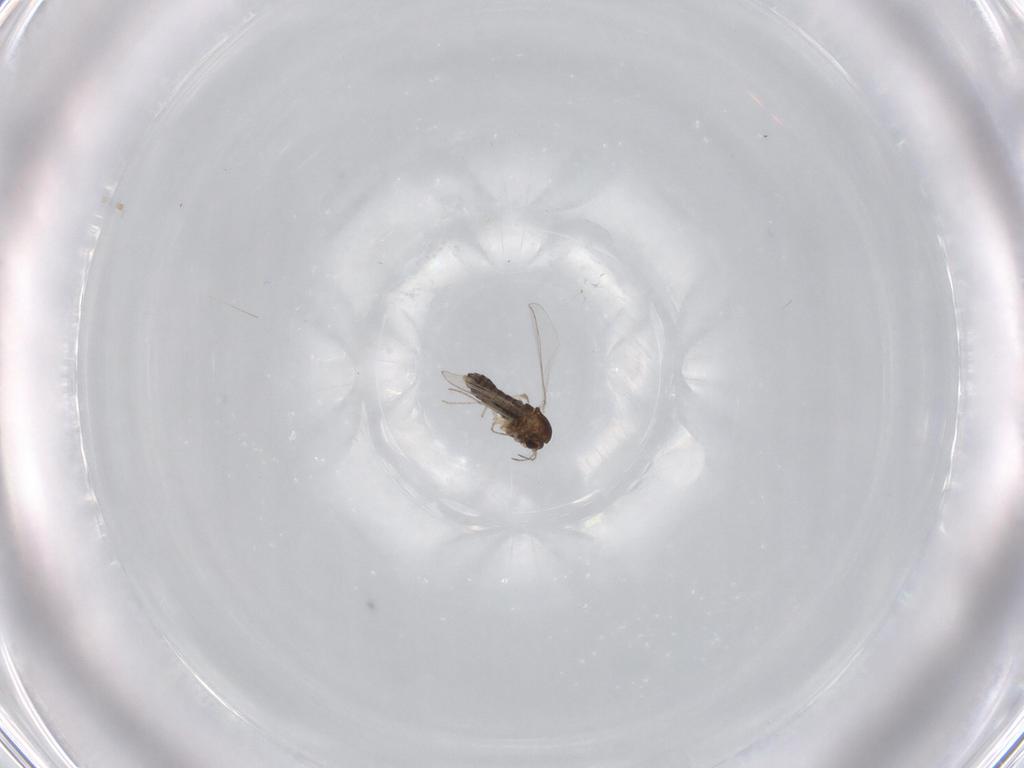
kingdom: Animalia
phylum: Arthropoda
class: Insecta
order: Diptera
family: Chironomidae
